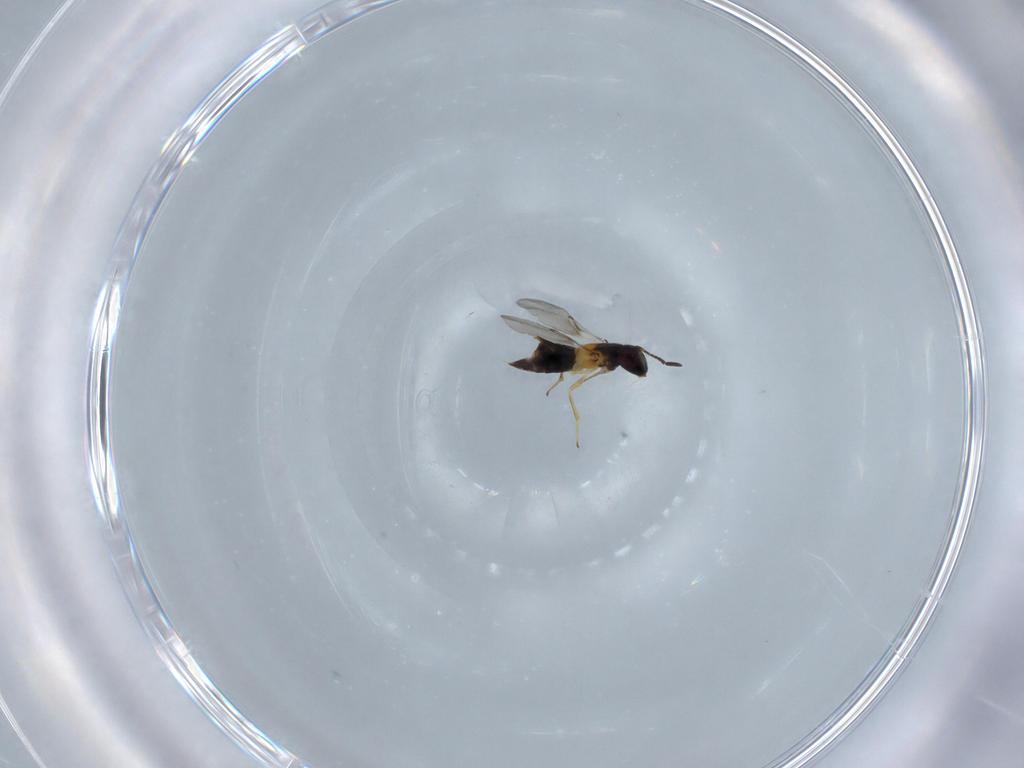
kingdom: Animalia
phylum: Arthropoda
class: Insecta
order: Hymenoptera
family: Encyrtidae
